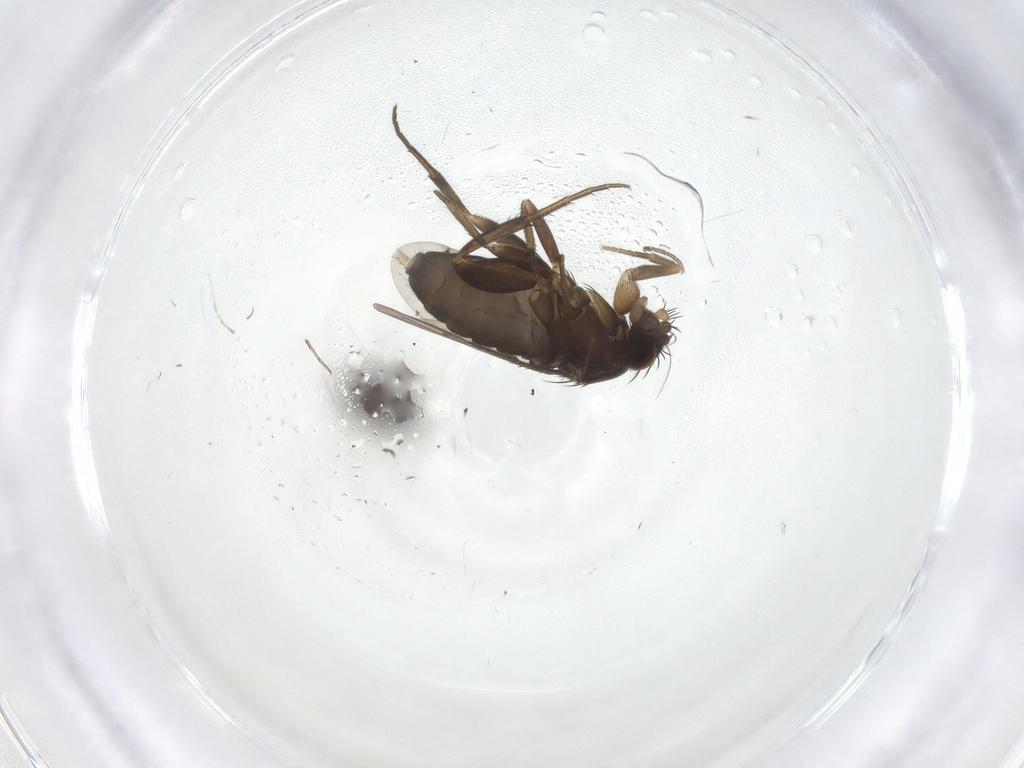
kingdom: Animalia
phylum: Arthropoda
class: Insecta
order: Diptera
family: Phoridae
